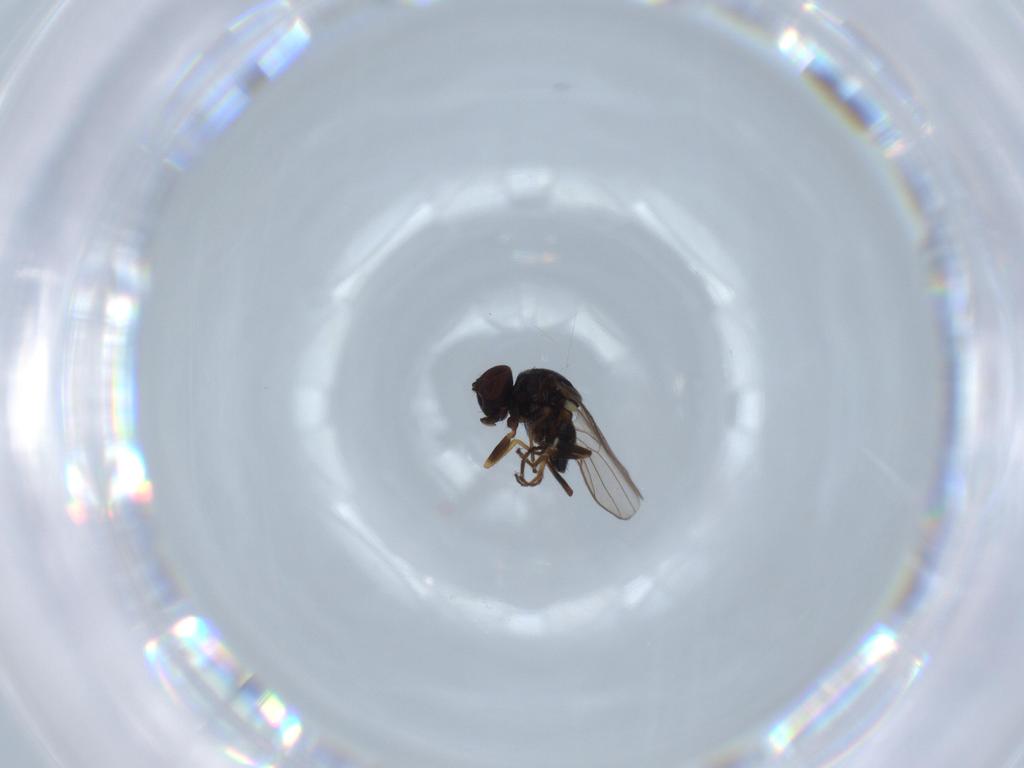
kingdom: Animalia
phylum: Arthropoda
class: Insecta
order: Diptera
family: Chloropidae
